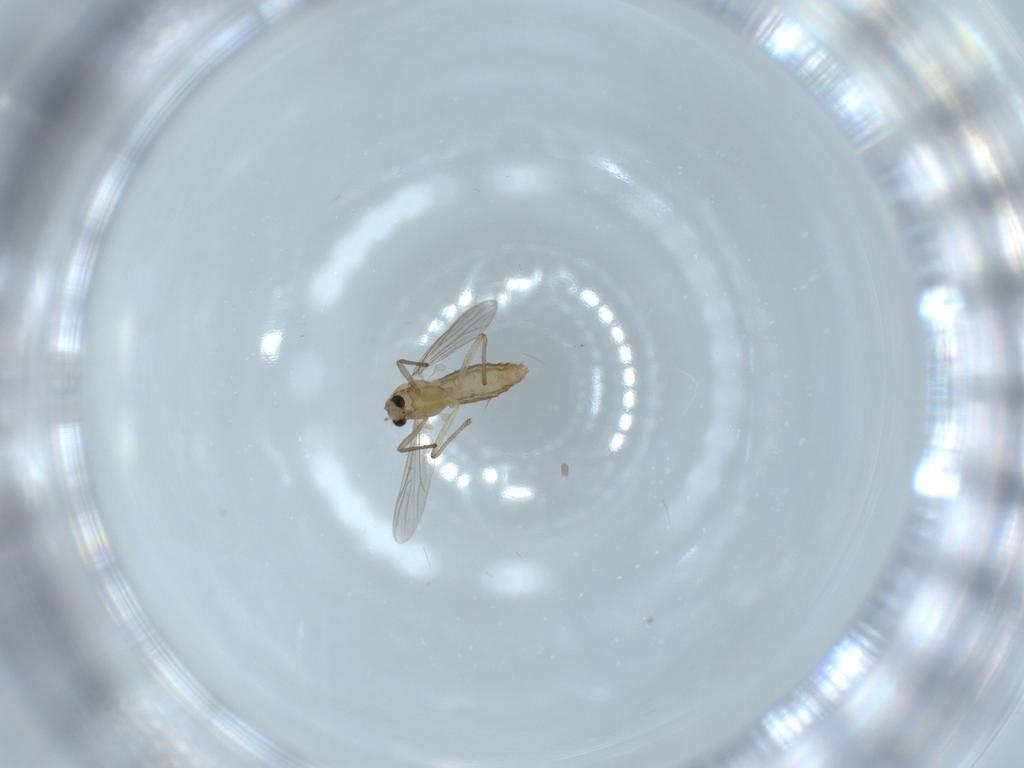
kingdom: Animalia
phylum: Arthropoda
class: Insecta
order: Diptera
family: Chironomidae
